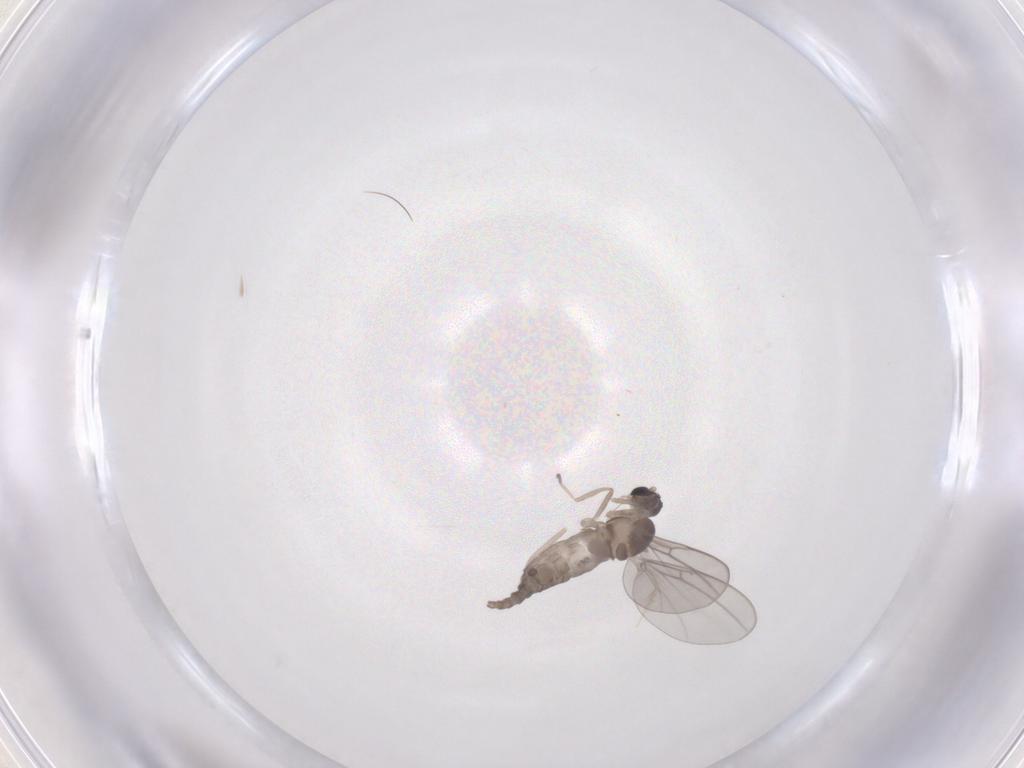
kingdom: Animalia
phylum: Arthropoda
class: Insecta
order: Diptera
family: Cecidomyiidae
